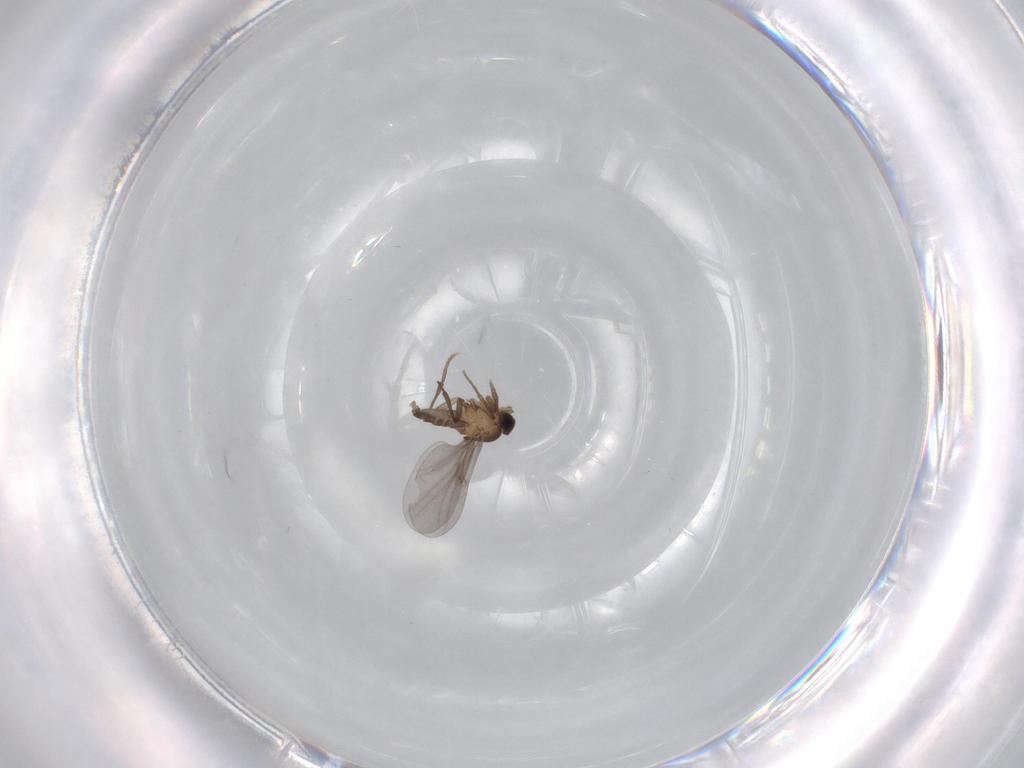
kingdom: Animalia
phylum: Arthropoda
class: Insecta
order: Diptera
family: Phoridae
